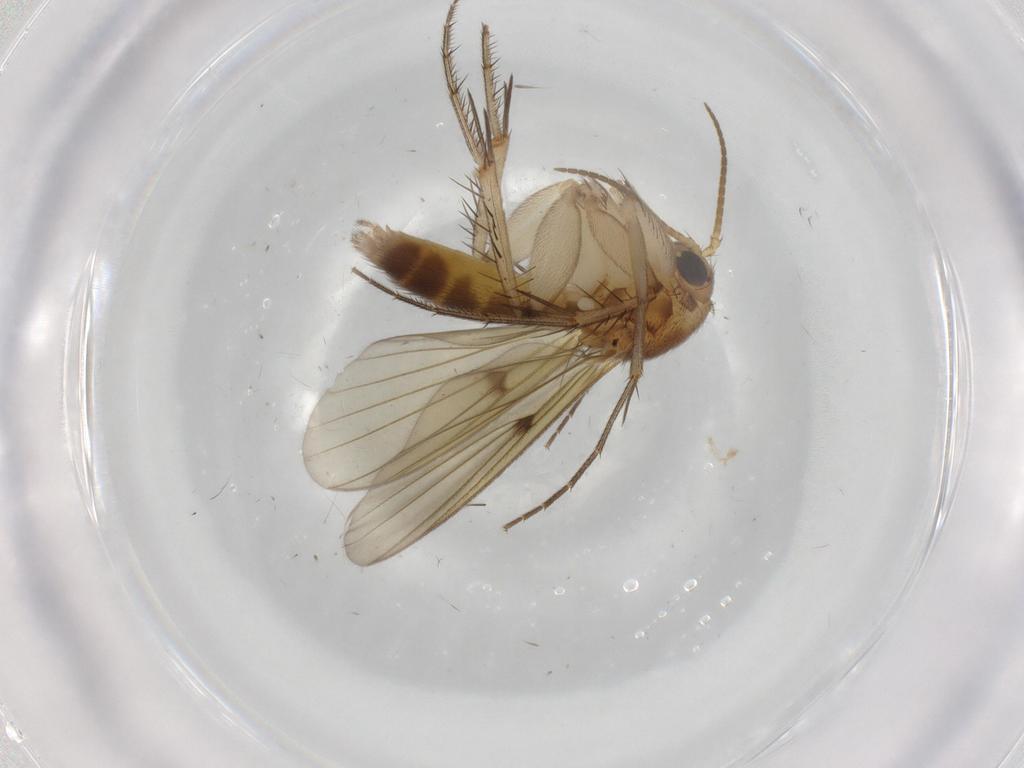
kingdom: Animalia
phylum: Arthropoda
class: Insecta
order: Diptera
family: Mycetophilidae
